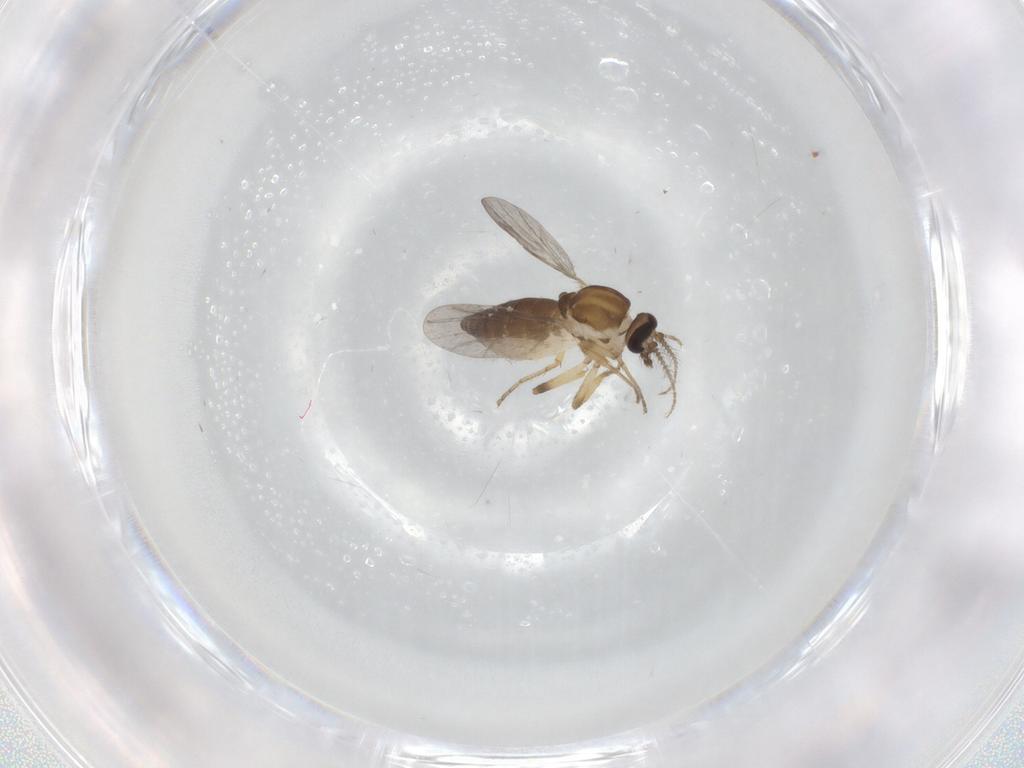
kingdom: Animalia
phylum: Arthropoda
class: Insecta
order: Diptera
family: Ceratopogonidae
